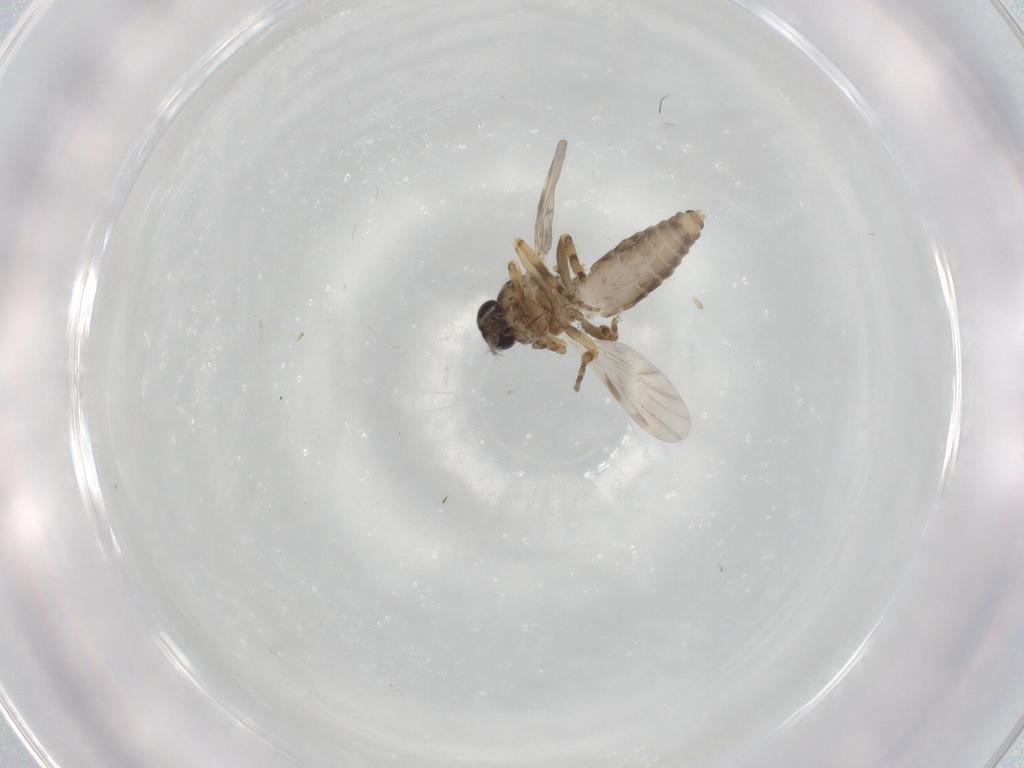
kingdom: Animalia
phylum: Arthropoda
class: Insecta
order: Diptera
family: Ceratopogonidae
